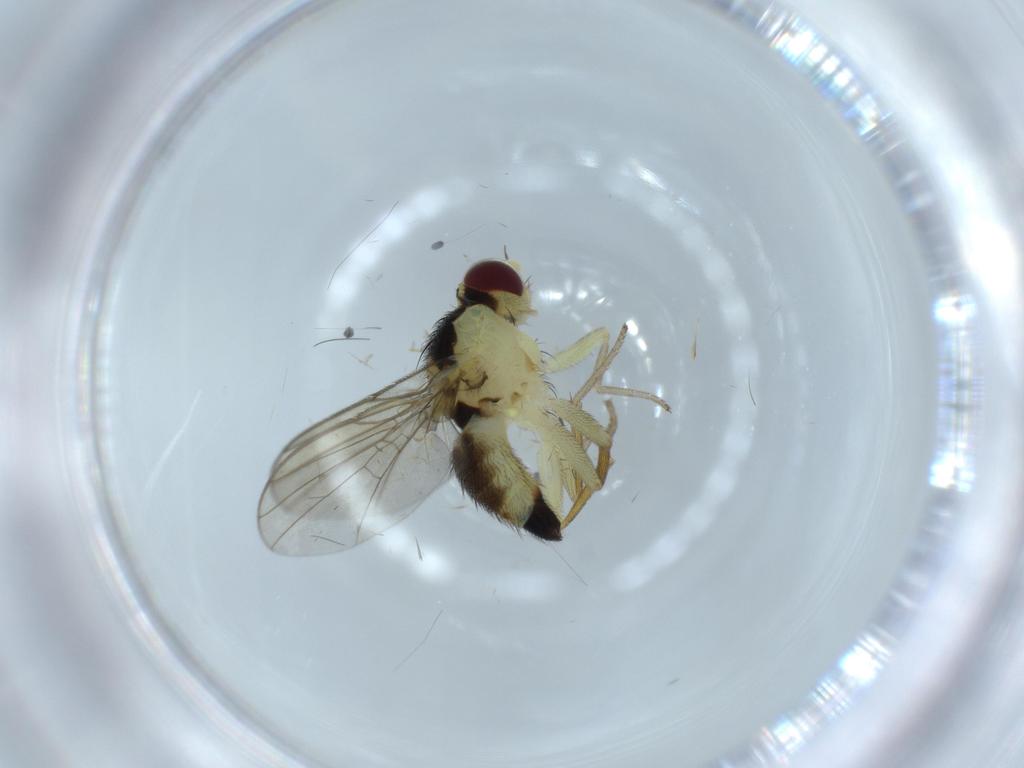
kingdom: Animalia
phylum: Arthropoda
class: Insecta
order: Diptera
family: Agromyzidae
